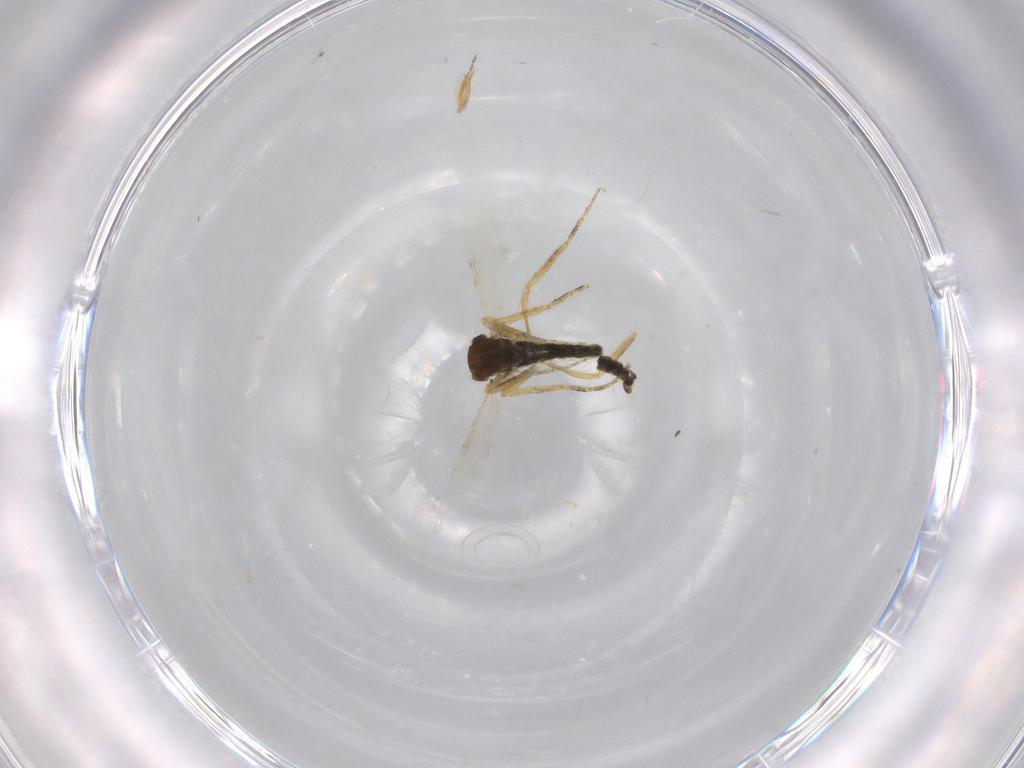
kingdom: Animalia
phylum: Arthropoda
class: Insecta
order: Diptera
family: Ceratopogonidae
